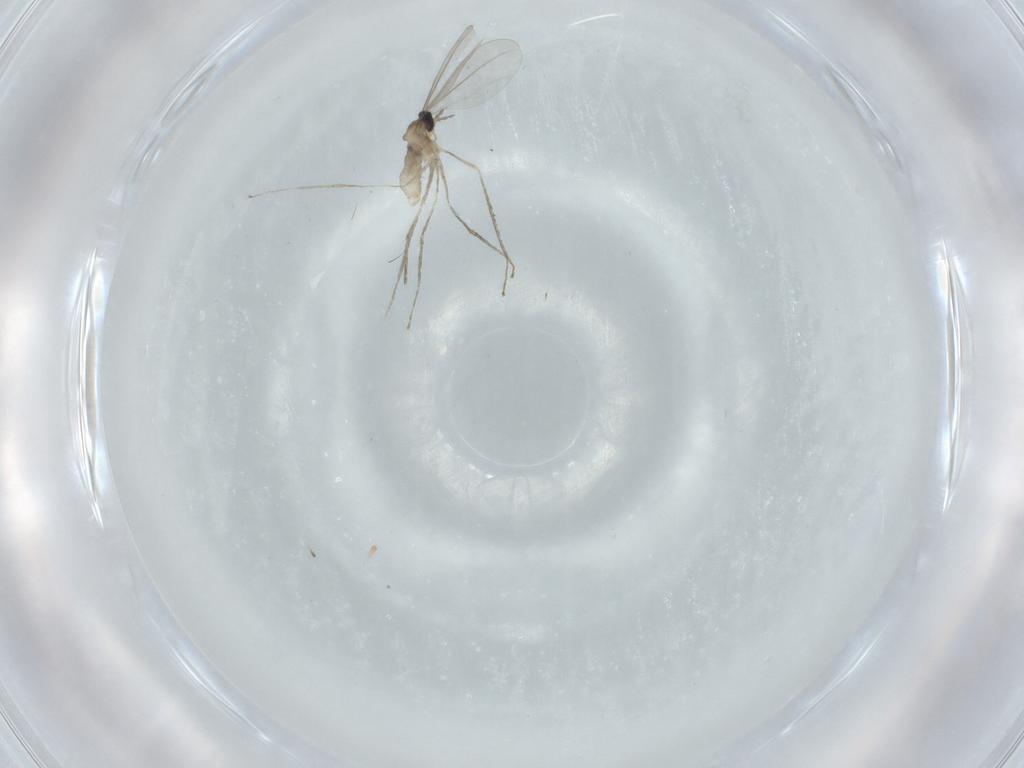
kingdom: Animalia
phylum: Arthropoda
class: Insecta
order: Diptera
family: Cecidomyiidae
